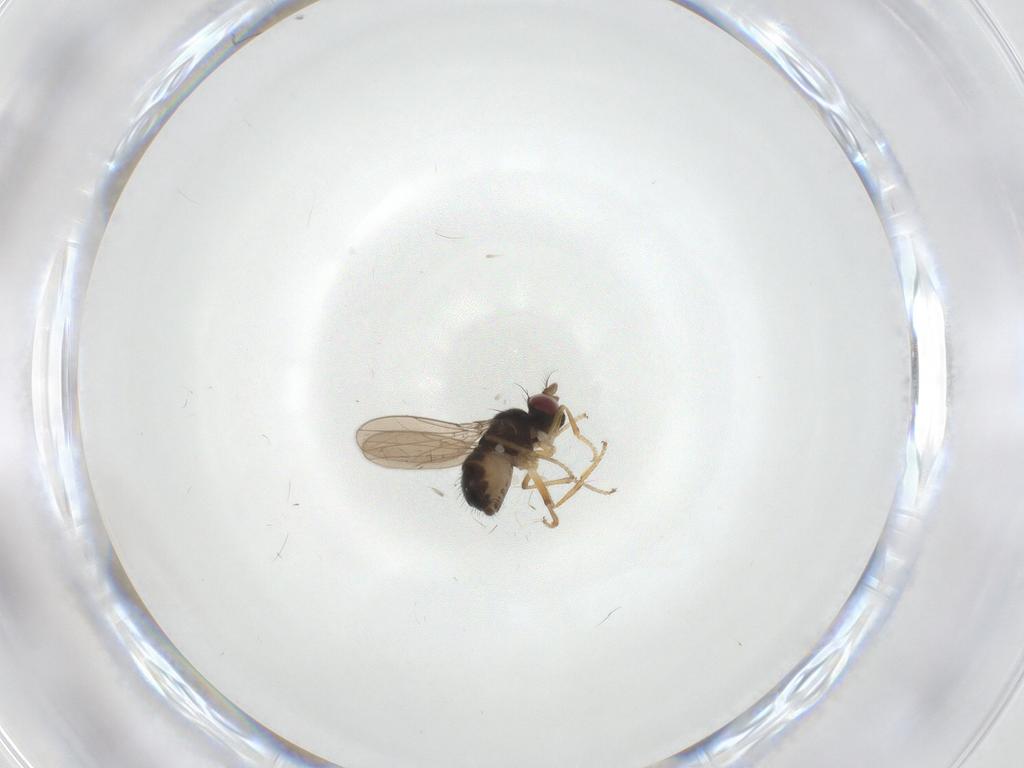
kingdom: Animalia
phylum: Arthropoda
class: Insecta
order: Diptera
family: Ephydridae
